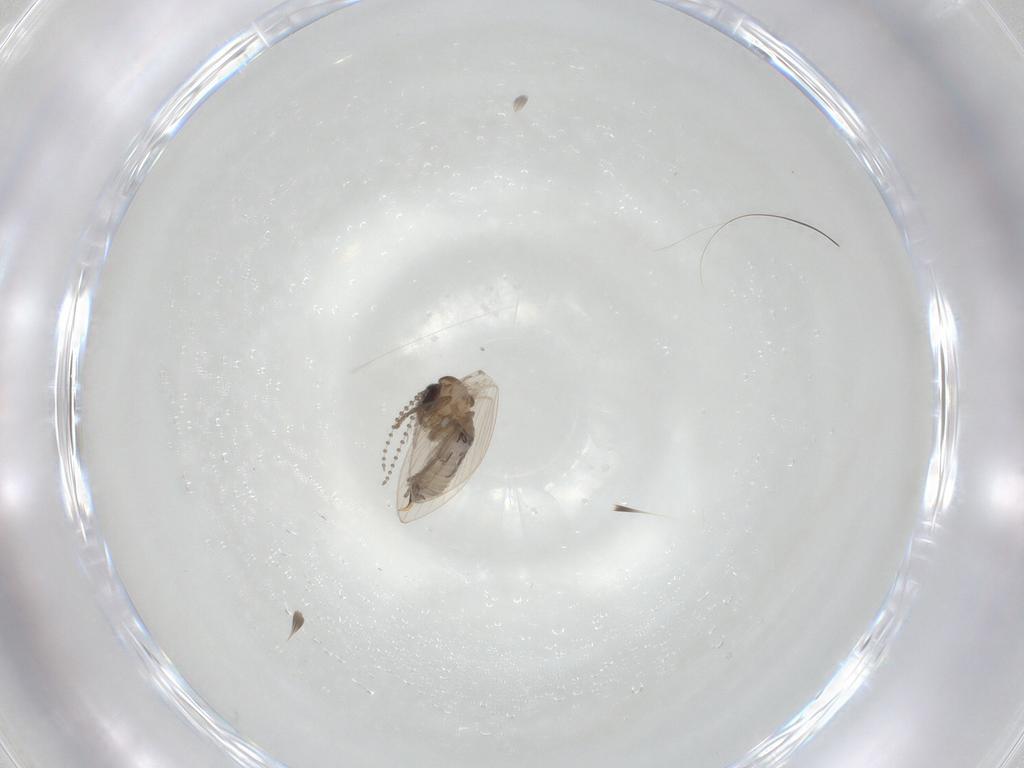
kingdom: Animalia
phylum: Arthropoda
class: Insecta
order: Diptera
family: Psychodidae
